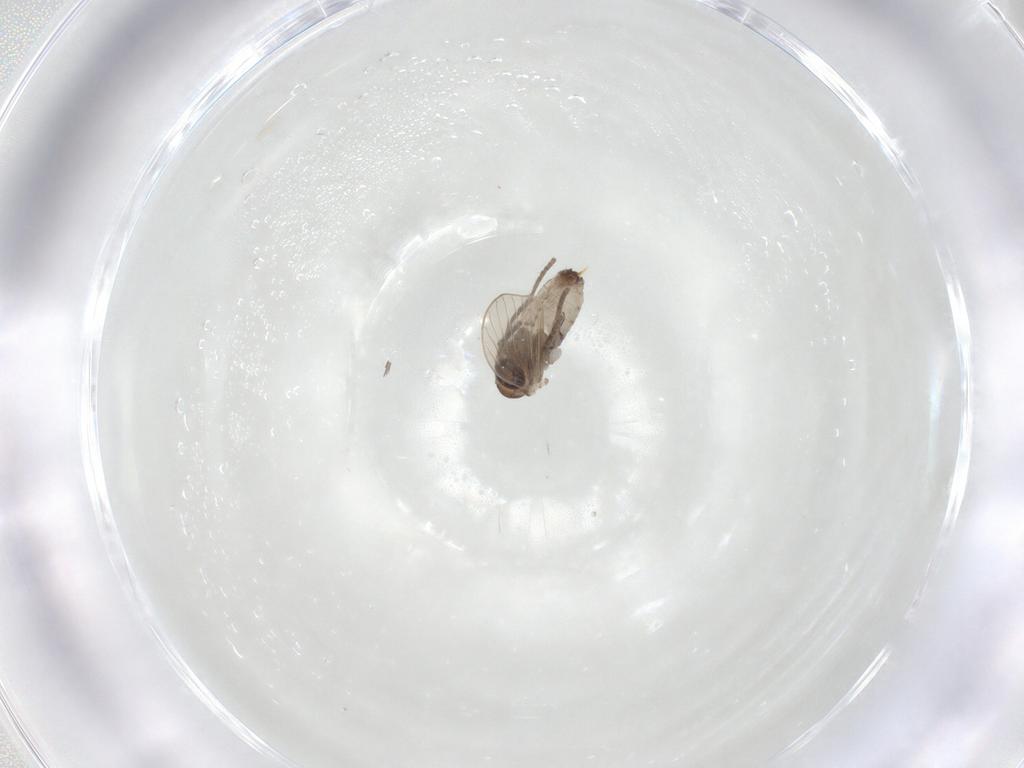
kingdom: Animalia
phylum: Arthropoda
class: Insecta
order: Diptera
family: Psychodidae
